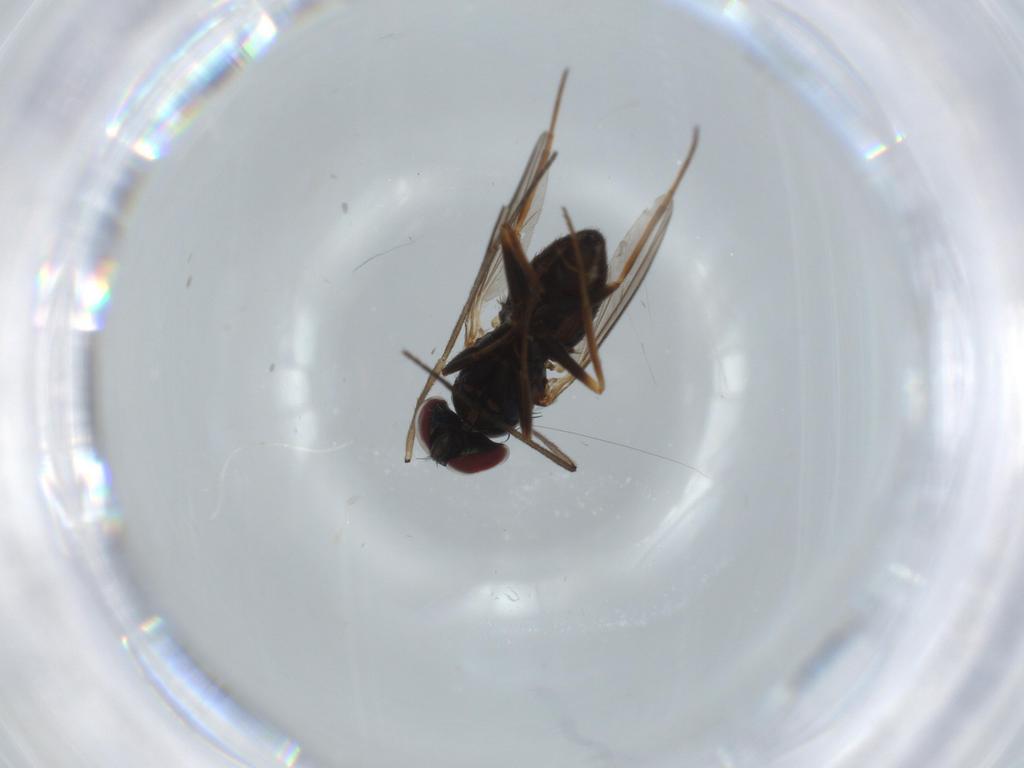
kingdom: Animalia
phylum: Arthropoda
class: Insecta
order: Diptera
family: Dolichopodidae
